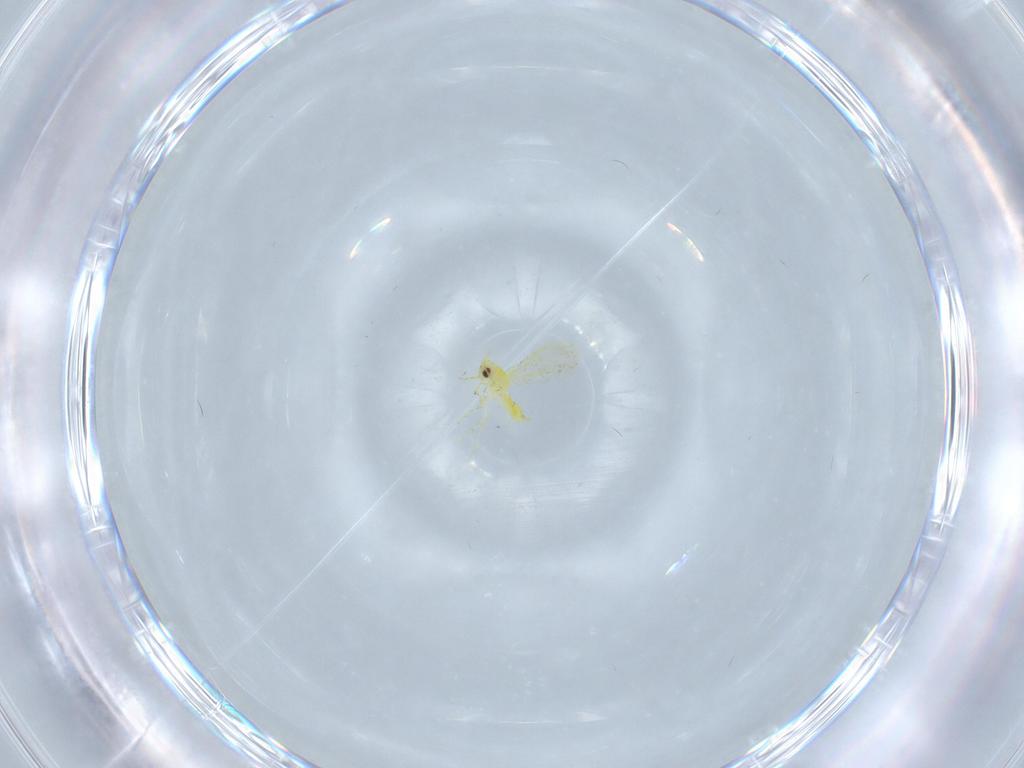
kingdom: Animalia
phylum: Arthropoda
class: Insecta
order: Hemiptera
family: Aleyrodidae
